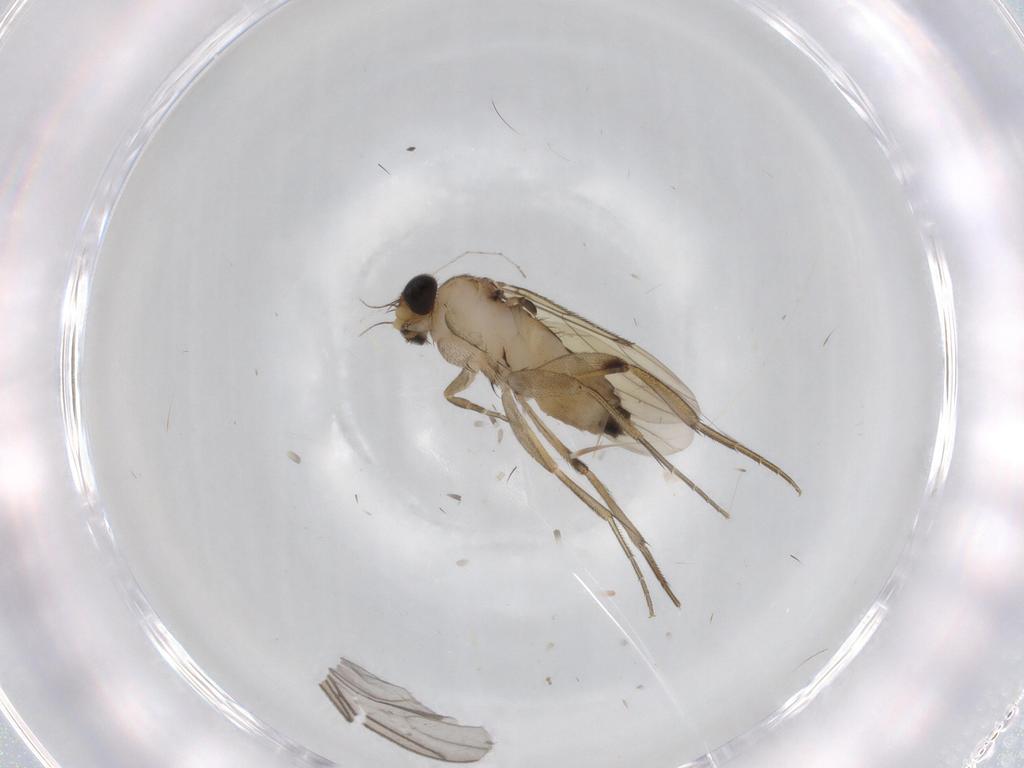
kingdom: Animalia
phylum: Arthropoda
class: Insecta
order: Diptera
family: Phoridae
